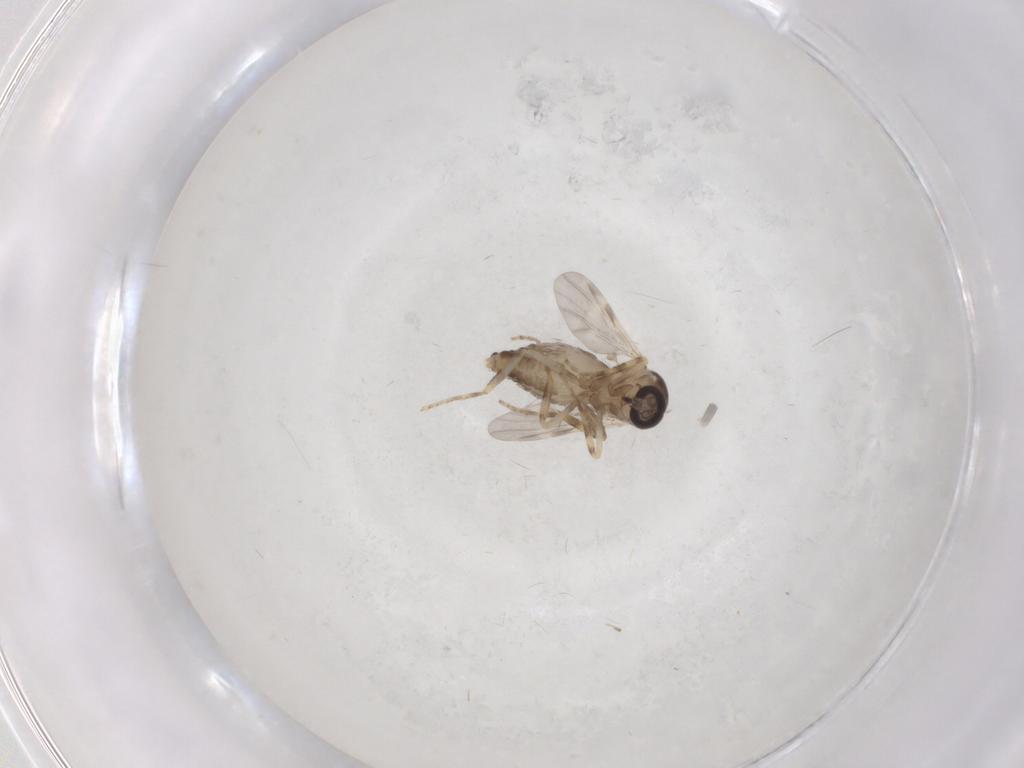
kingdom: Animalia
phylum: Arthropoda
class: Insecta
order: Diptera
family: Ceratopogonidae
